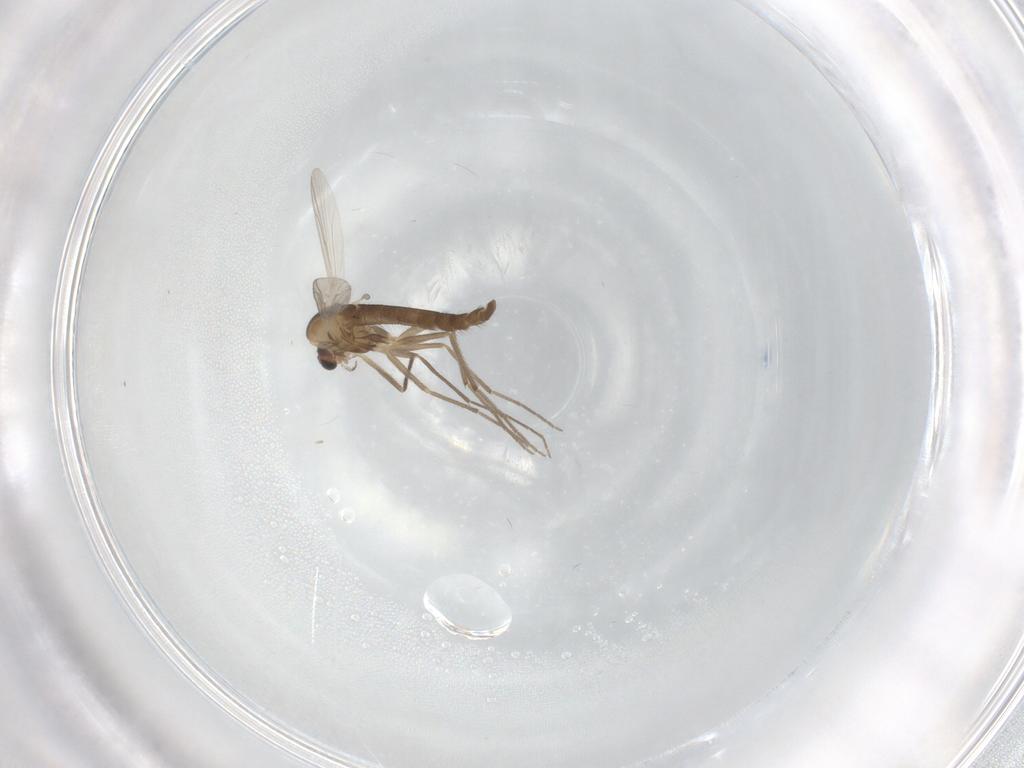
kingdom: Animalia
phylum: Arthropoda
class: Insecta
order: Diptera
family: Chironomidae
